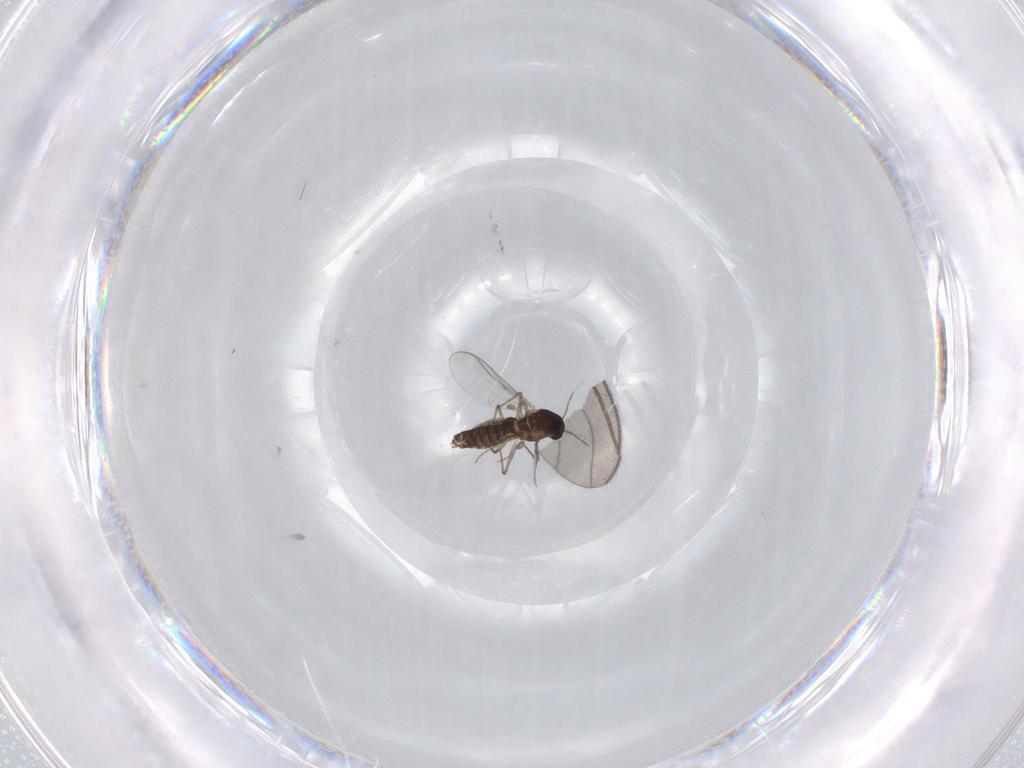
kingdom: Animalia
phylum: Arthropoda
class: Insecta
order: Diptera
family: Chironomidae
